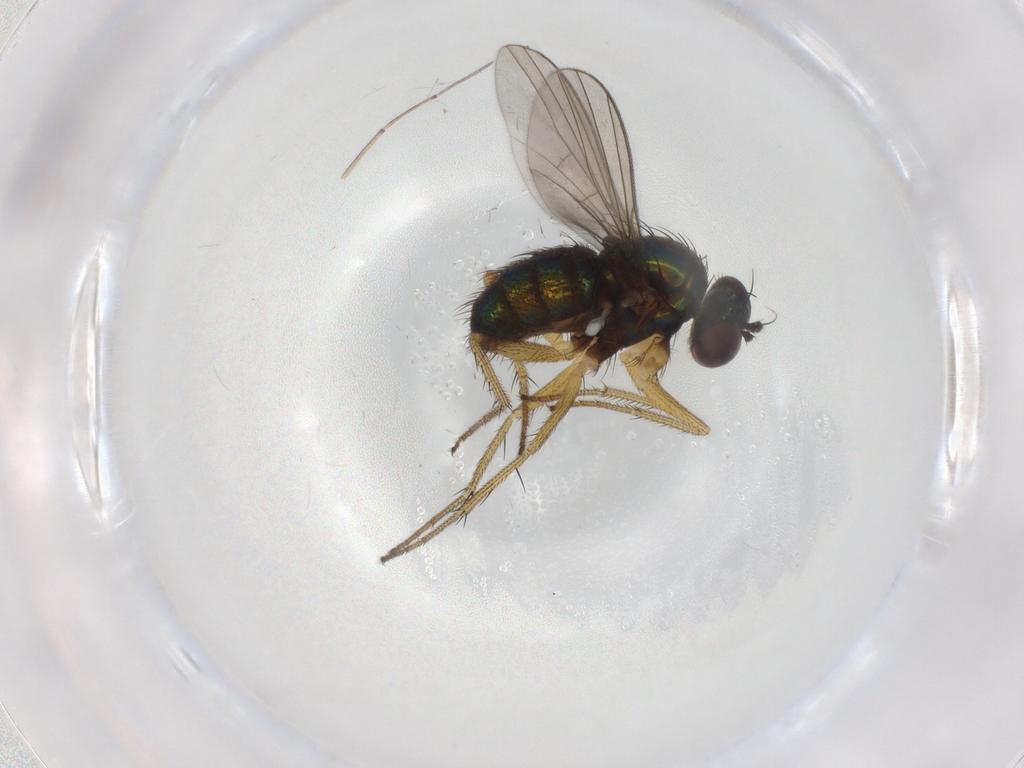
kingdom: Animalia
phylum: Arthropoda
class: Insecta
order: Diptera
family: Dolichopodidae
